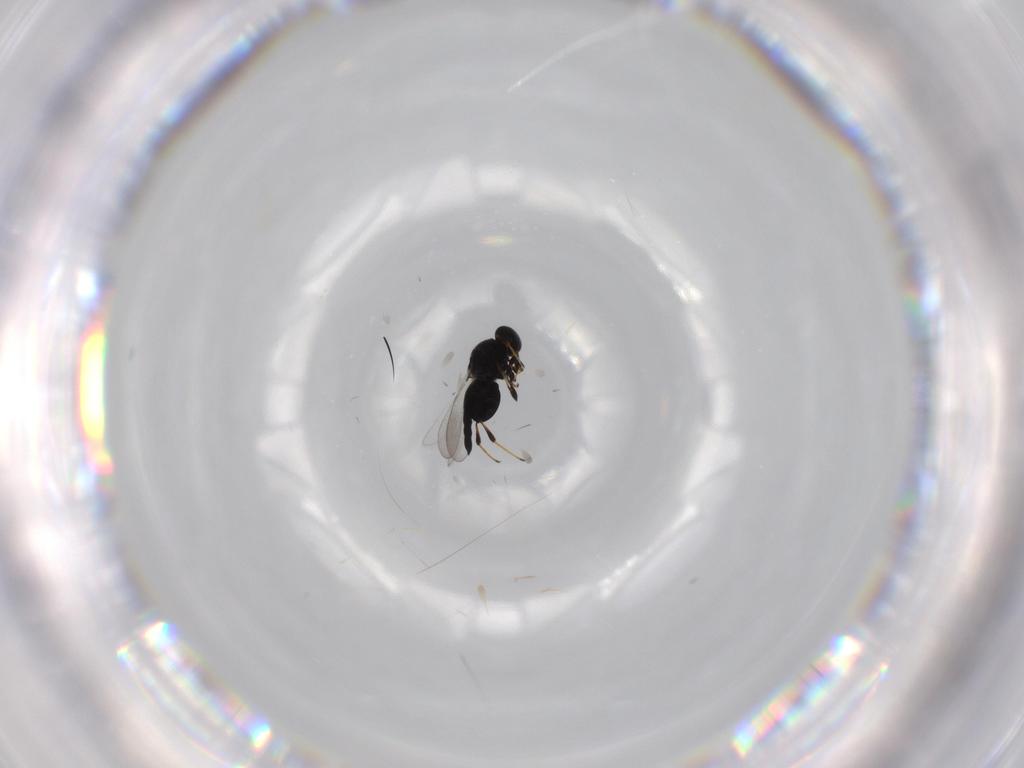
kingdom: Animalia
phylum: Arthropoda
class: Insecta
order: Hymenoptera
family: Platygastridae
